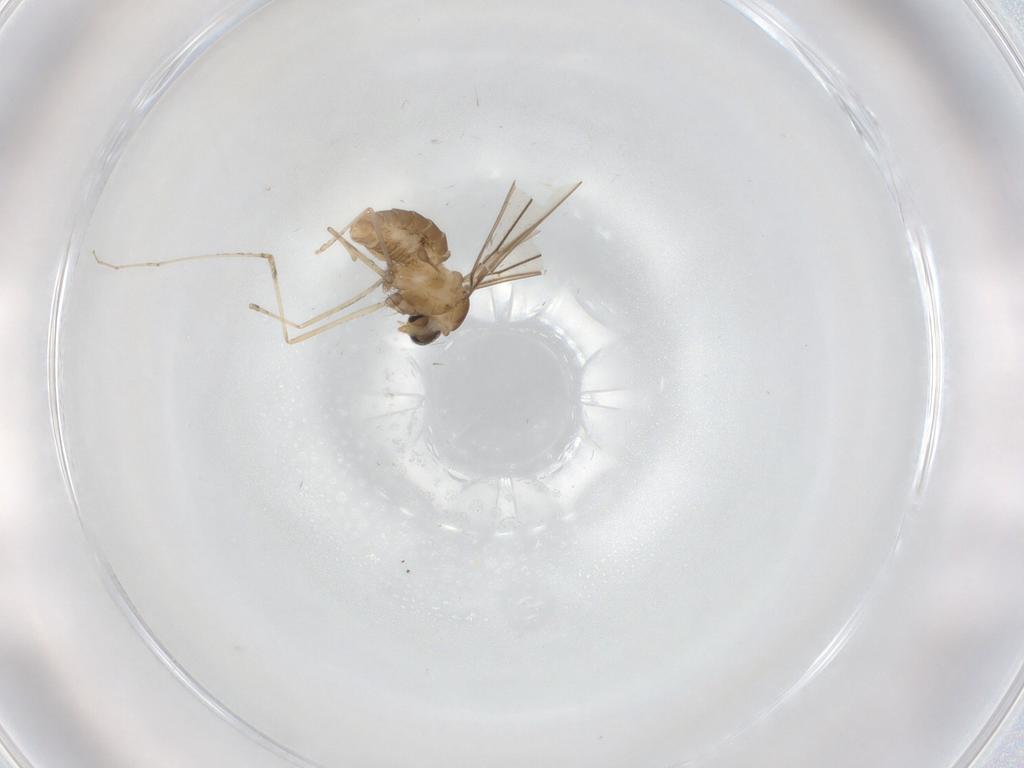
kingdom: Animalia
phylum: Arthropoda
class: Insecta
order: Diptera
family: Cecidomyiidae
